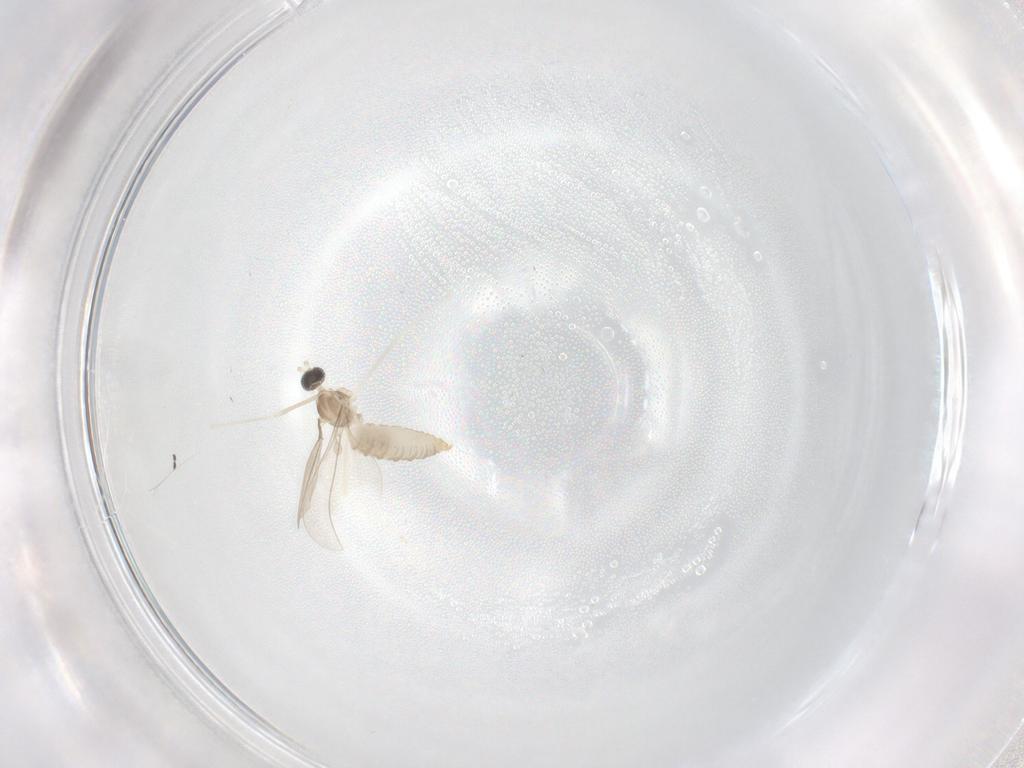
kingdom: Animalia
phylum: Arthropoda
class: Insecta
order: Diptera
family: Cecidomyiidae
